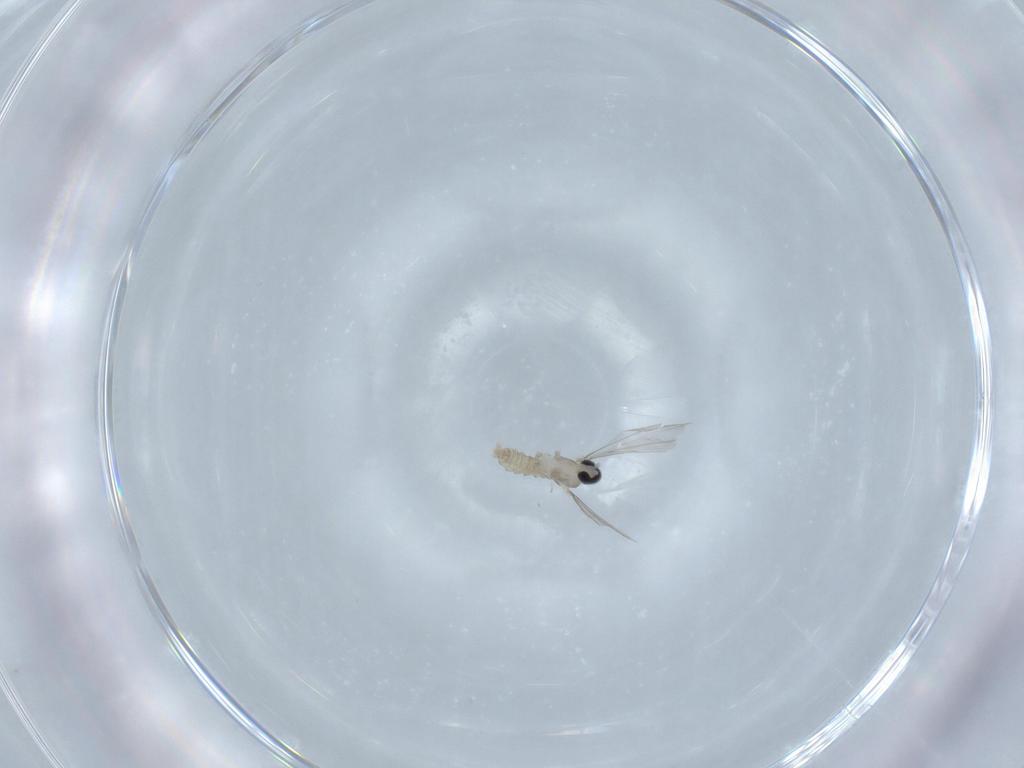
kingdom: Animalia
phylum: Arthropoda
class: Insecta
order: Diptera
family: Cecidomyiidae
